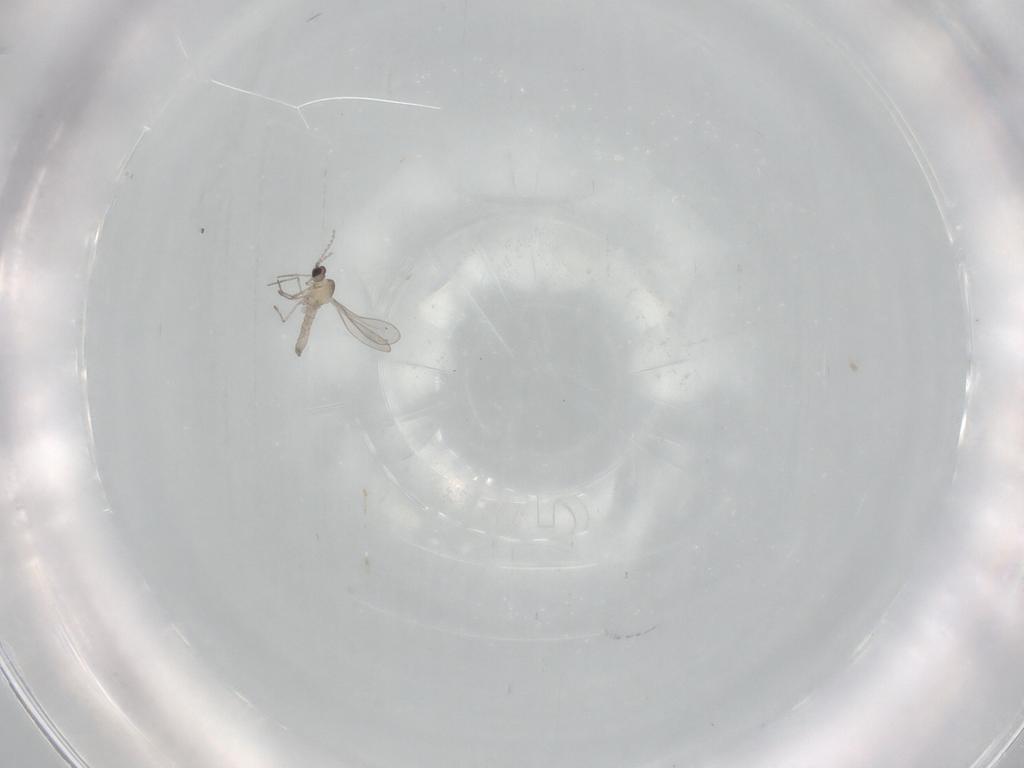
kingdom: Animalia
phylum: Arthropoda
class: Insecta
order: Diptera
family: Cecidomyiidae
